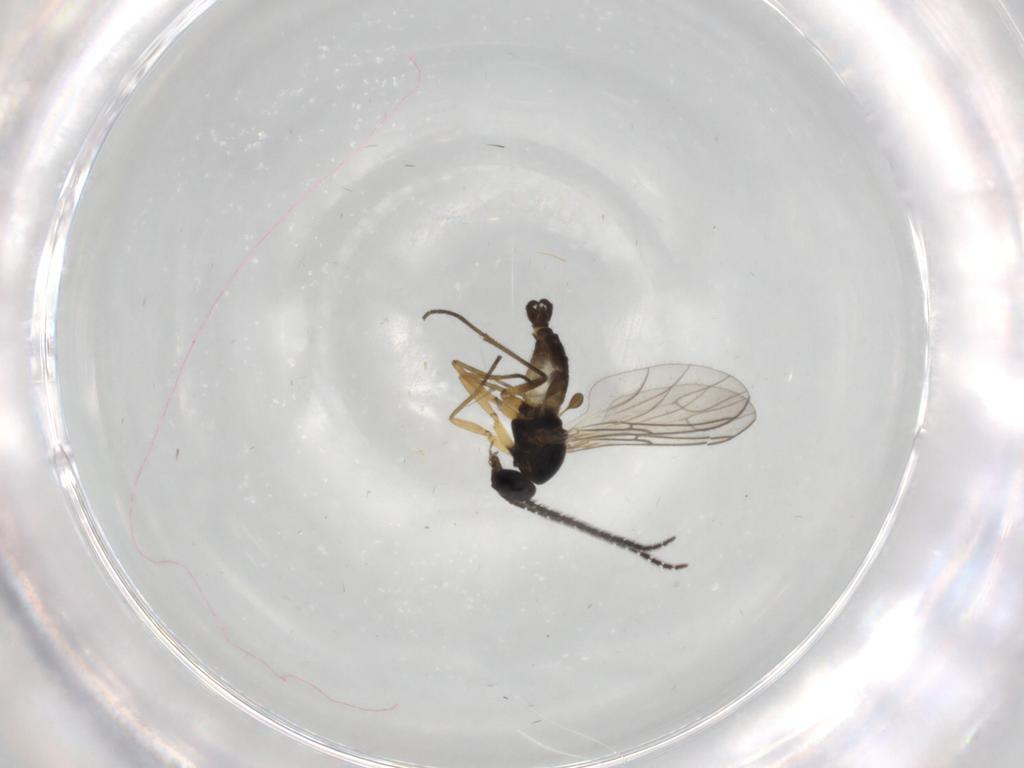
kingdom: Animalia
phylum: Arthropoda
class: Insecta
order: Diptera
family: Sciaridae
